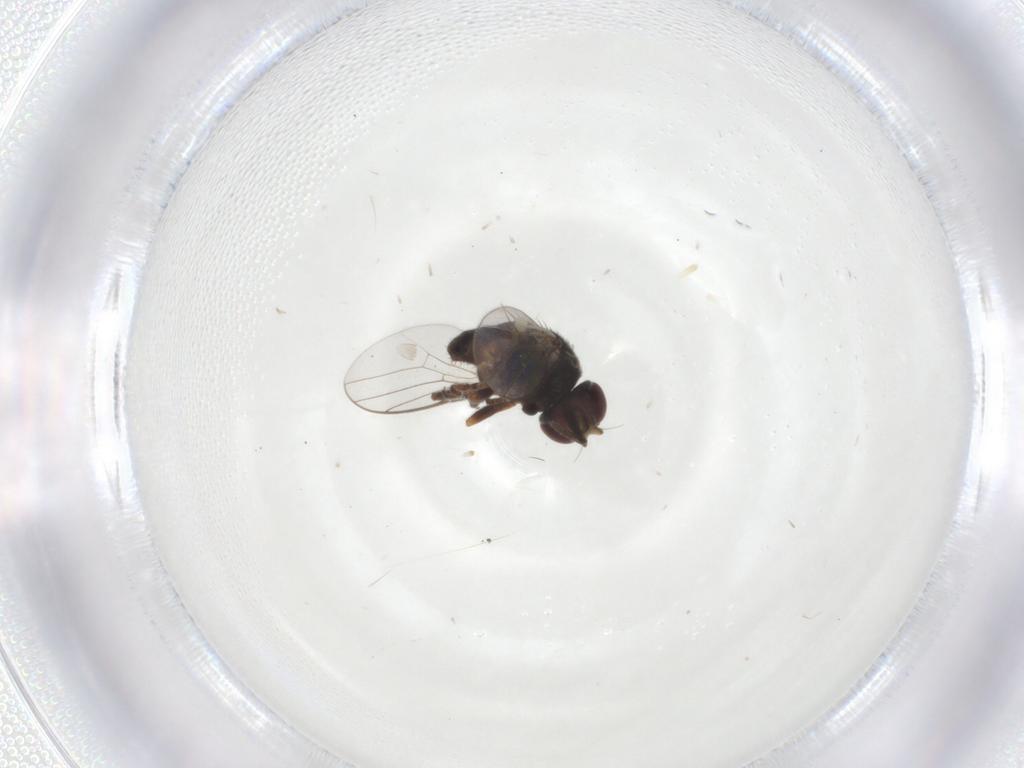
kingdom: Animalia
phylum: Arthropoda
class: Insecta
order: Diptera
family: Chloropidae
